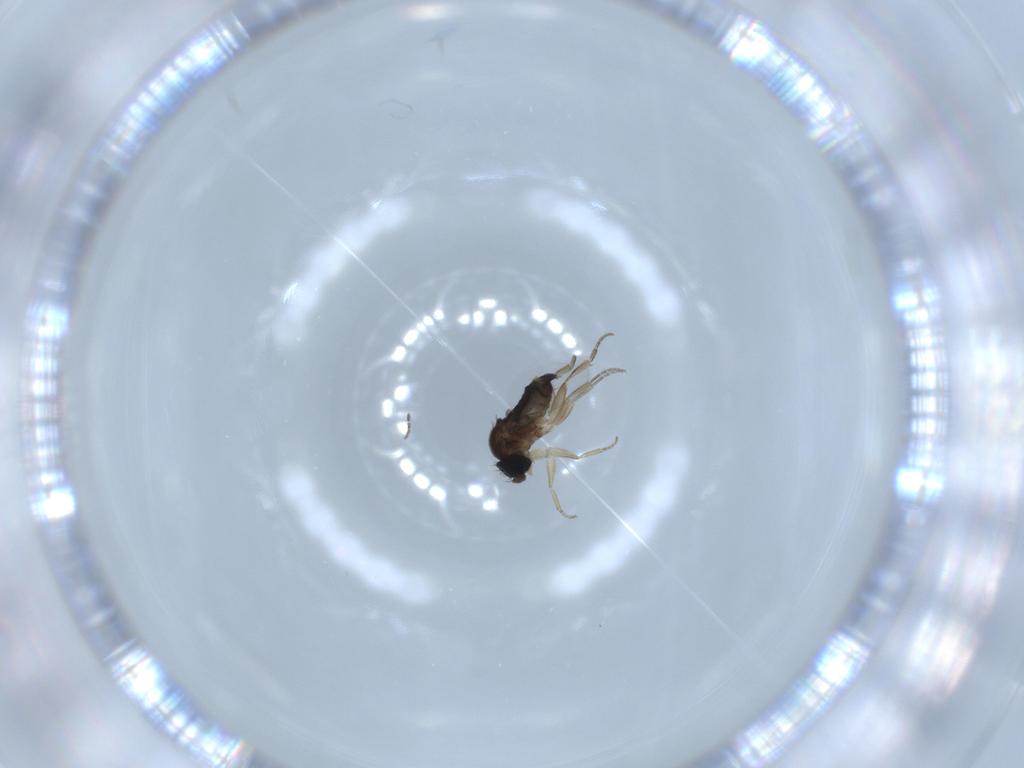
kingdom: Animalia
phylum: Arthropoda
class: Insecta
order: Diptera
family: Phoridae
